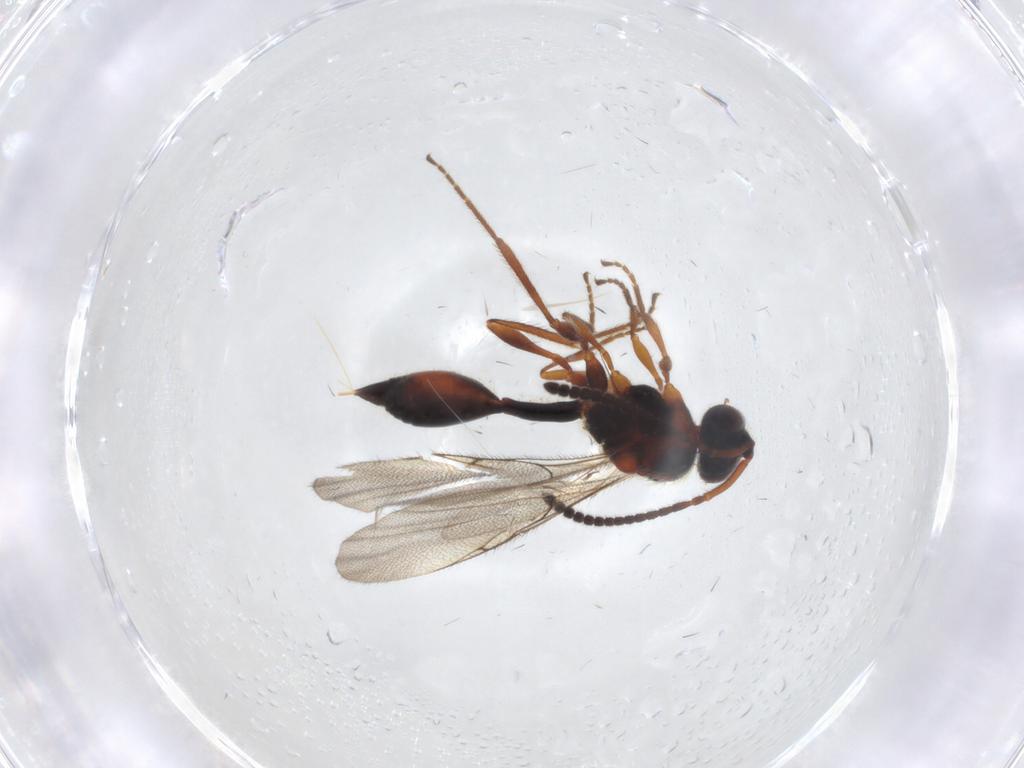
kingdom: Animalia
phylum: Arthropoda
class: Insecta
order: Hymenoptera
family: Diapriidae
